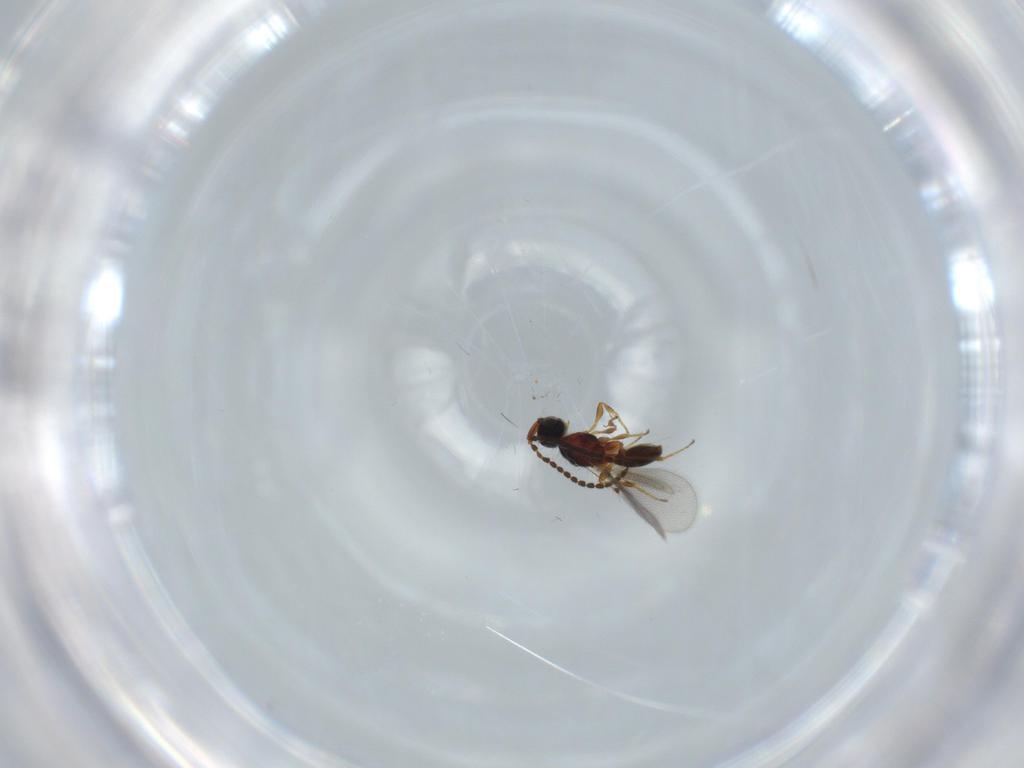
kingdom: Animalia
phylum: Arthropoda
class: Insecta
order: Hymenoptera
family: Diapriidae
